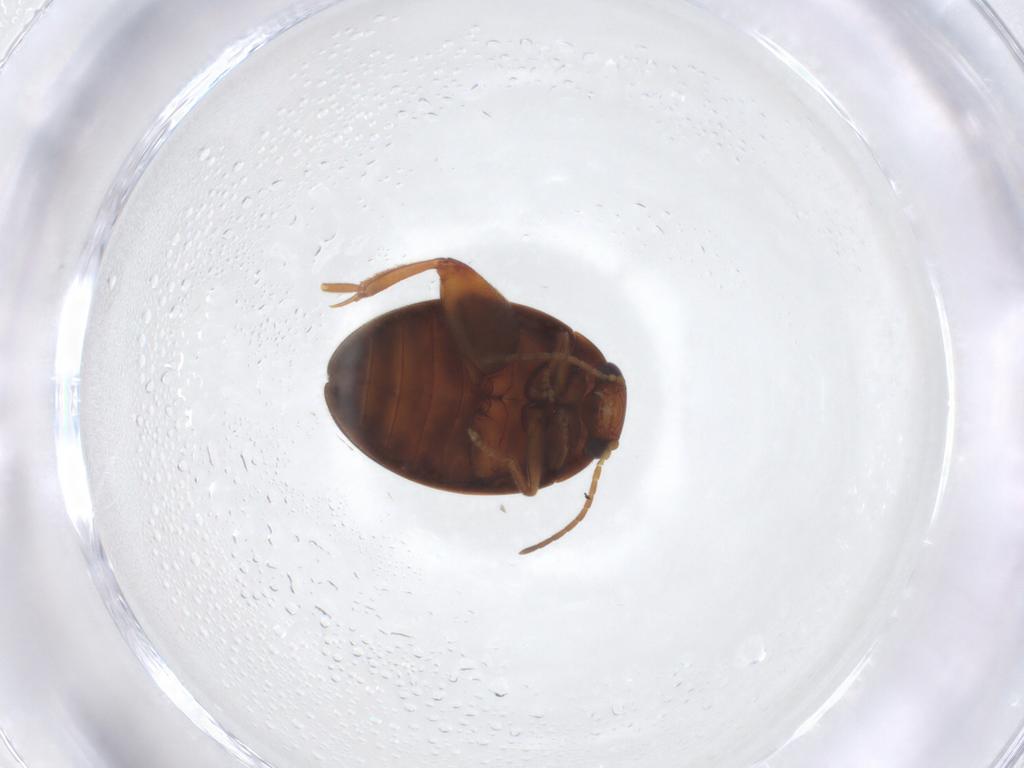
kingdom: Animalia
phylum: Arthropoda
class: Insecta
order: Coleoptera
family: Scirtidae
